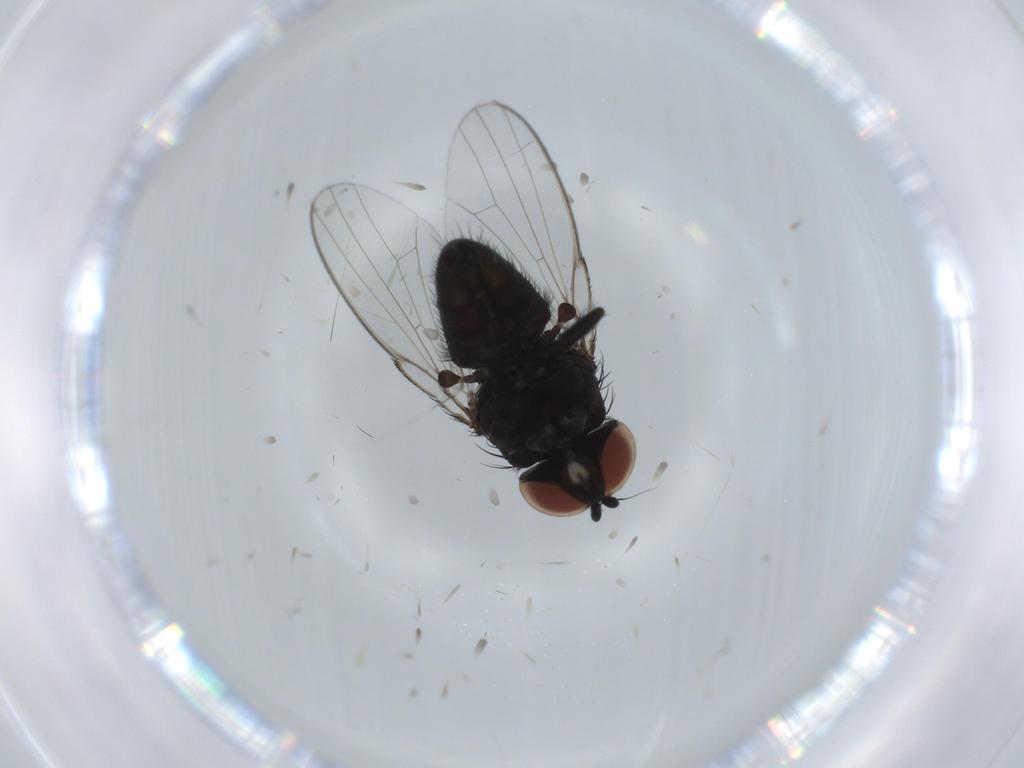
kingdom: Animalia
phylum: Arthropoda
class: Insecta
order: Diptera
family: Milichiidae
